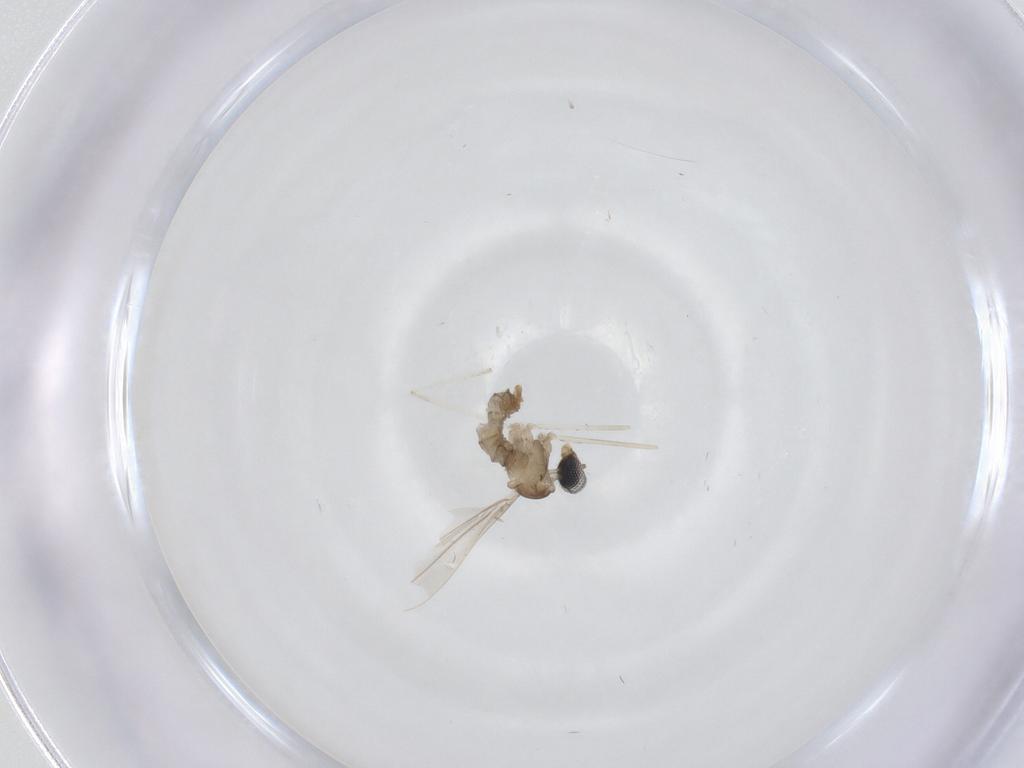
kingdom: Animalia
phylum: Arthropoda
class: Insecta
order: Diptera
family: Cecidomyiidae
